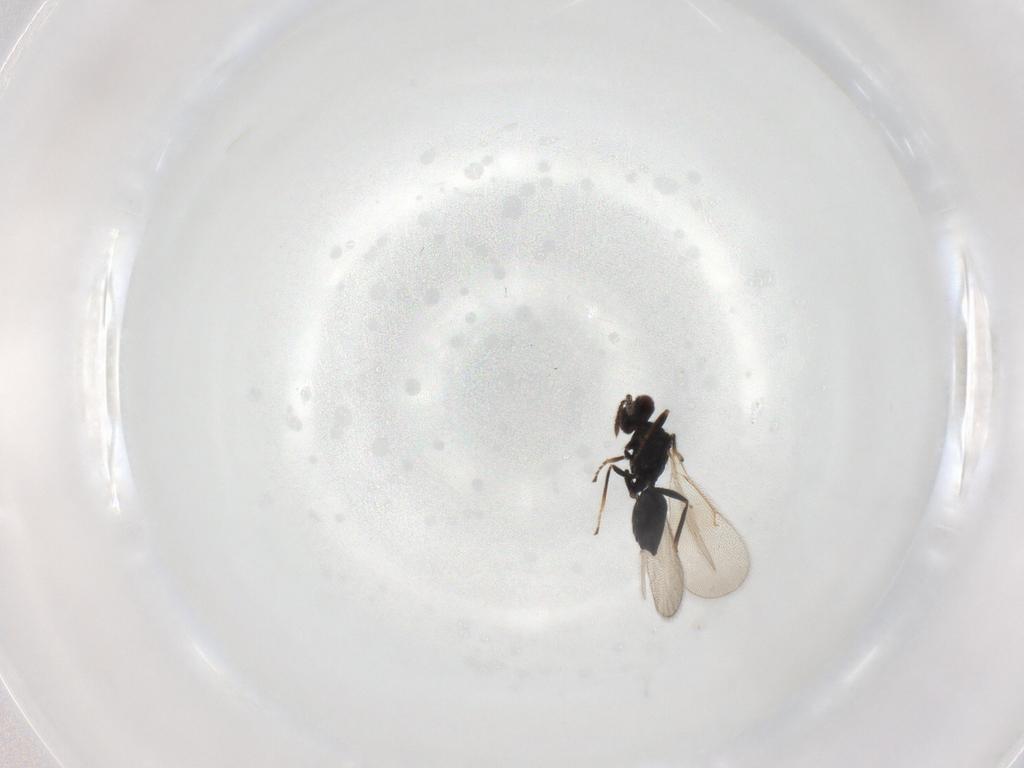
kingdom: Animalia
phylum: Arthropoda
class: Insecta
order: Hymenoptera
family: Eulophidae
